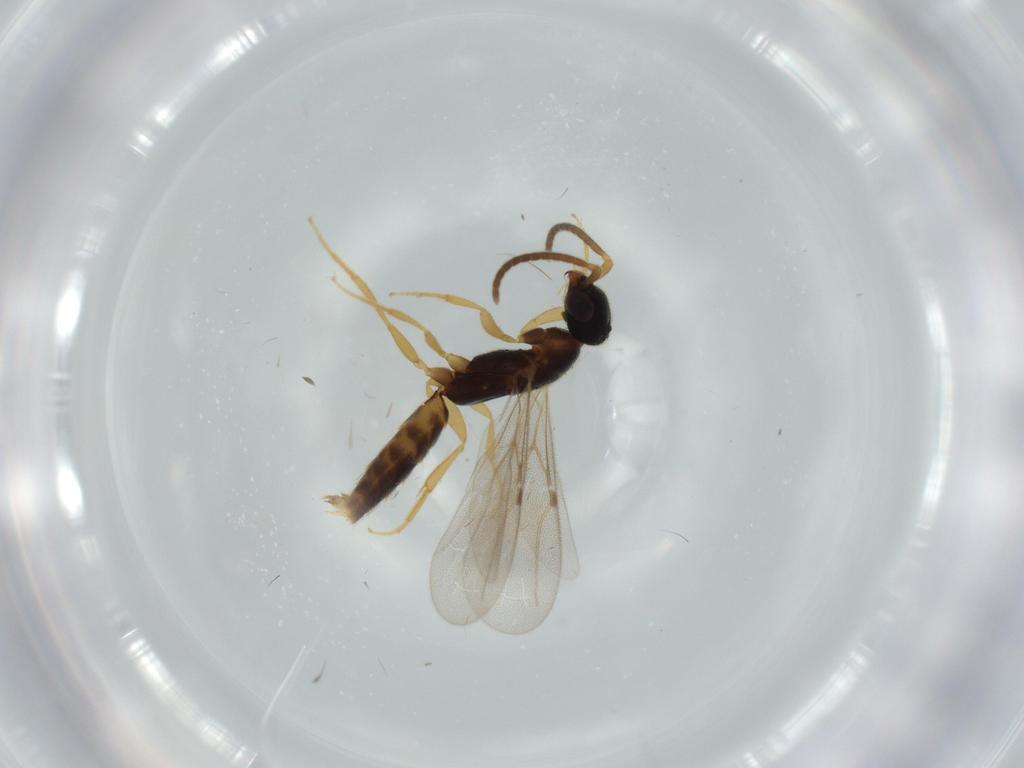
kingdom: Animalia
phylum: Arthropoda
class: Insecta
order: Hymenoptera
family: Bethylidae
